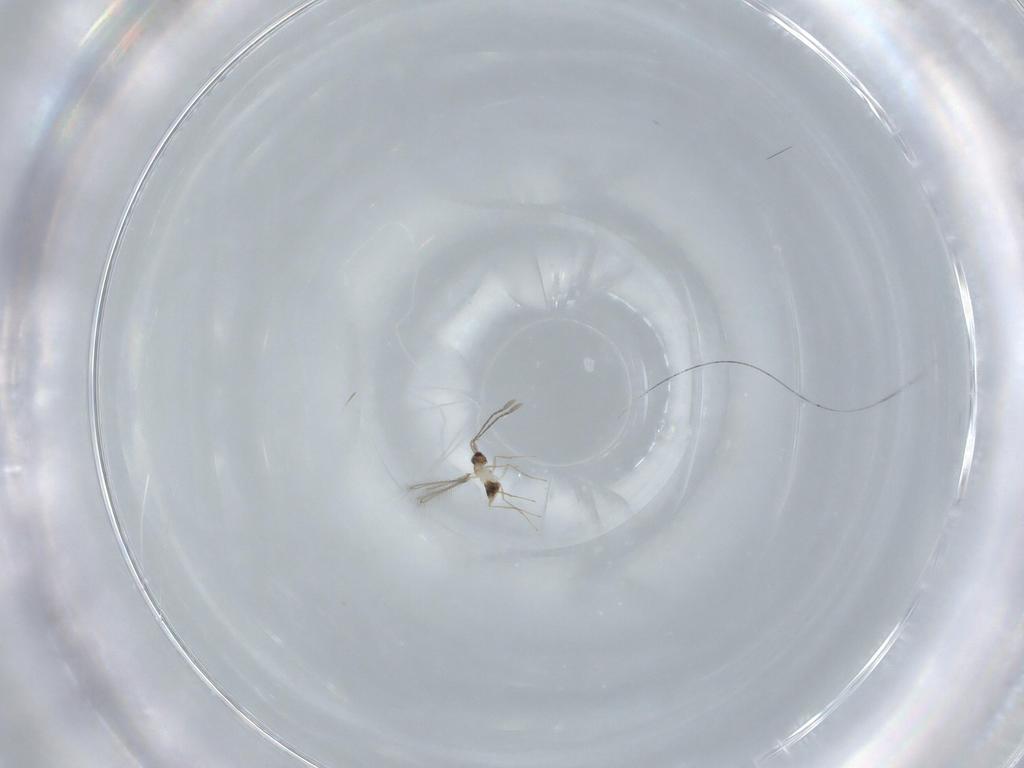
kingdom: Animalia
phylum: Arthropoda
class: Insecta
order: Hymenoptera
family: Mymaridae
